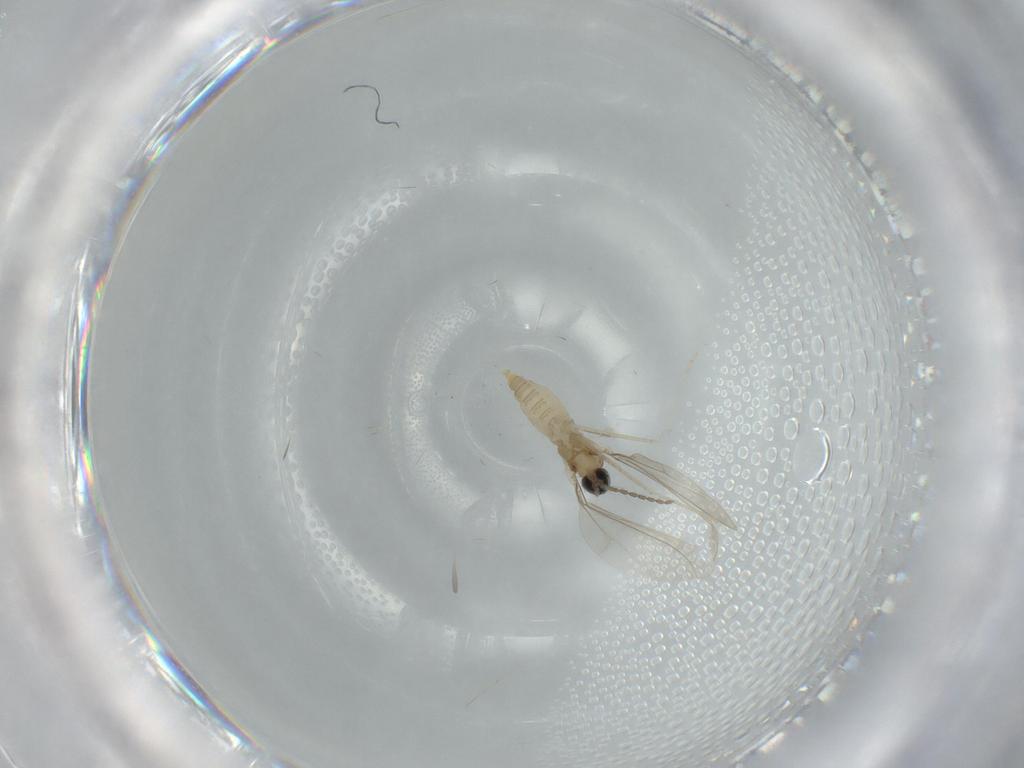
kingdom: Animalia
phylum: Arthropoda
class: Insecta
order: Diptera
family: Cecidomyiidae
